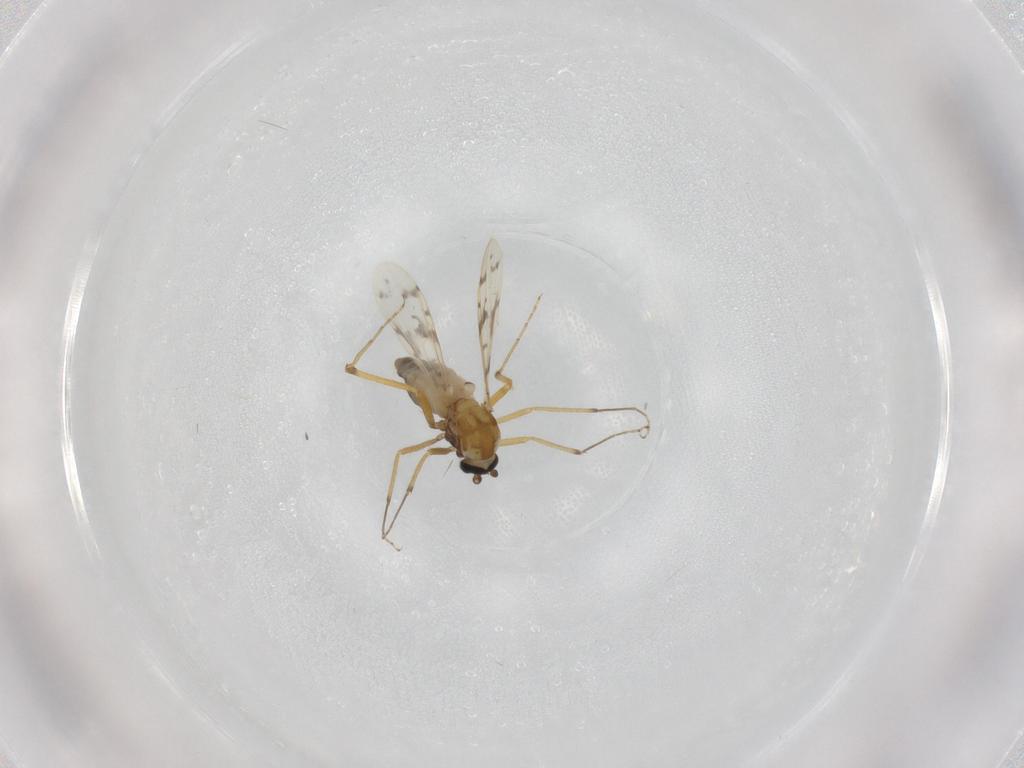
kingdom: Animalia
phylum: Arthropoda
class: Insecta
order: Diptera
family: Ceratopogonidae
